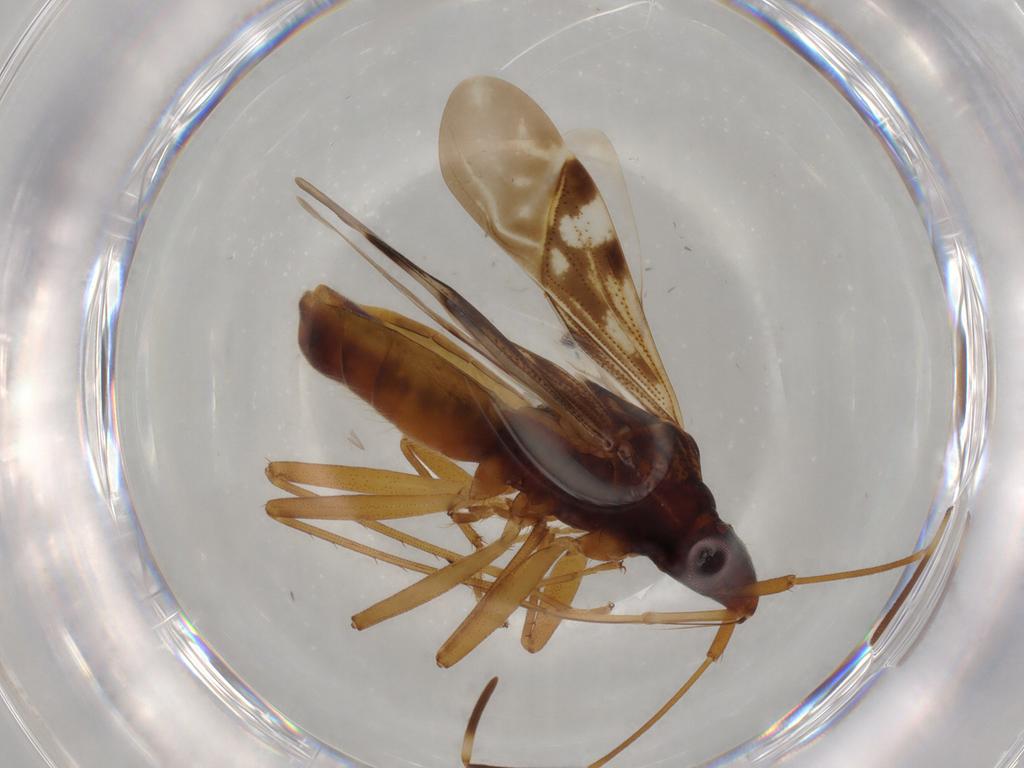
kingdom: Animalia
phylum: Arthropoda
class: Insecta
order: Hemiptera
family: Rhyparochromidae
